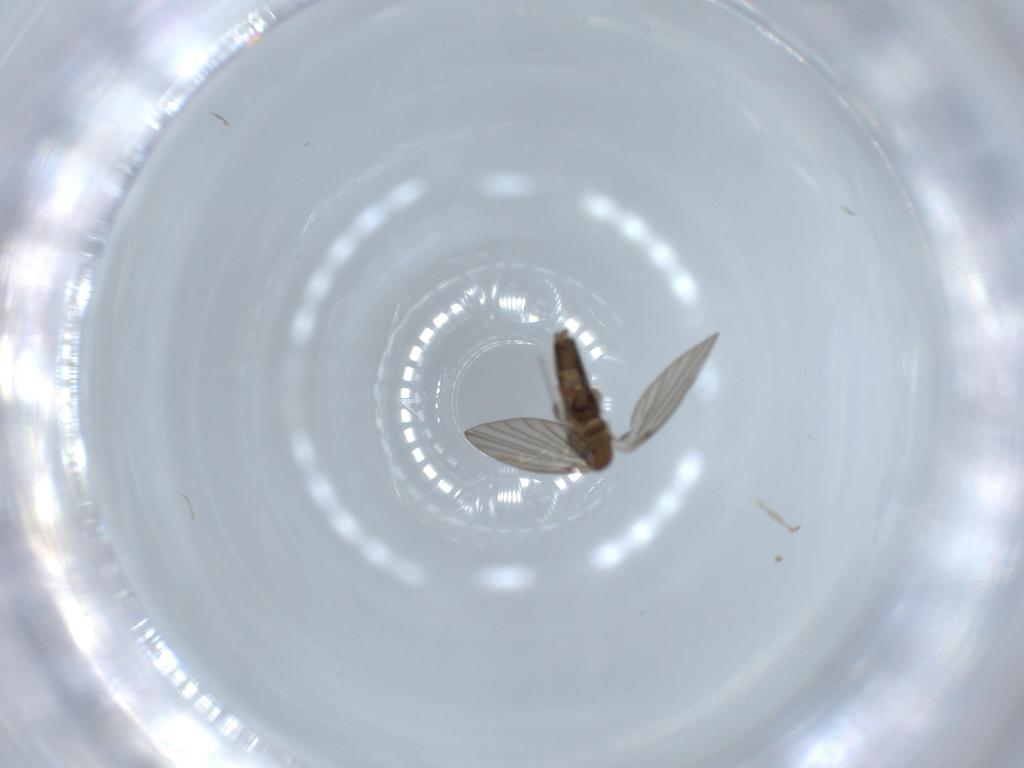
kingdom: Animalia
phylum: Arthropoda
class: Insecta
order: Diptera
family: Psychodidae
